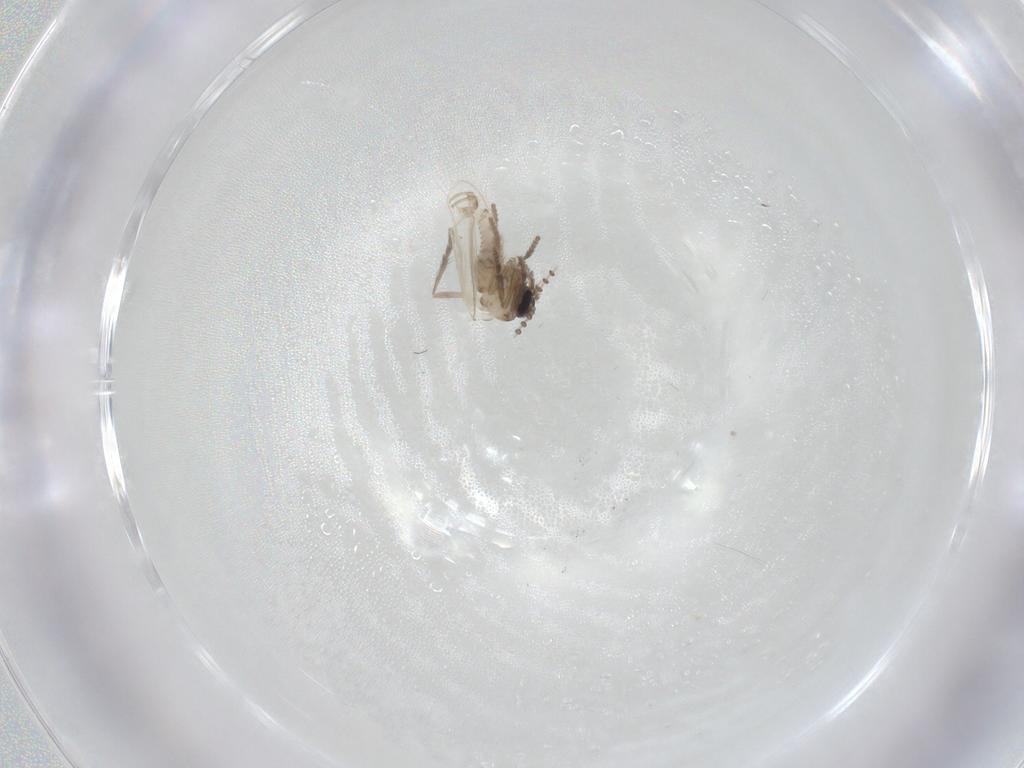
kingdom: Animalia
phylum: Arthropoda
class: Insecta
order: Diptera
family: Psychodidae
